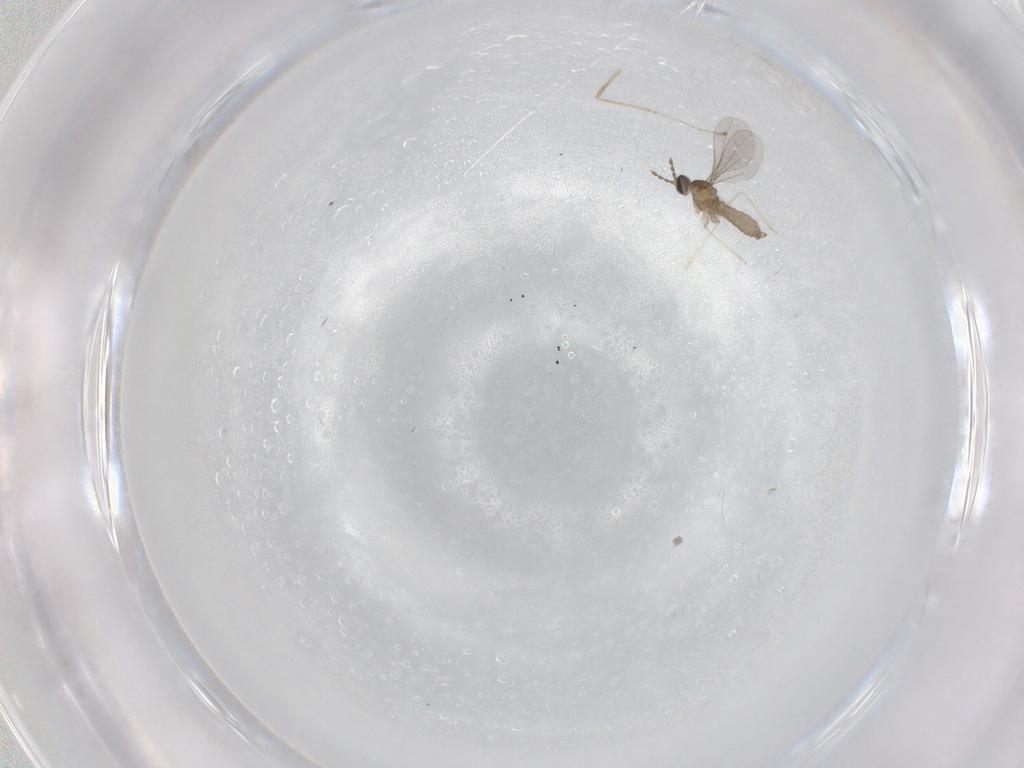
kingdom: Animalia
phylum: Arthropoda
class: Insecta
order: Diptera
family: Cecidomyiidae
